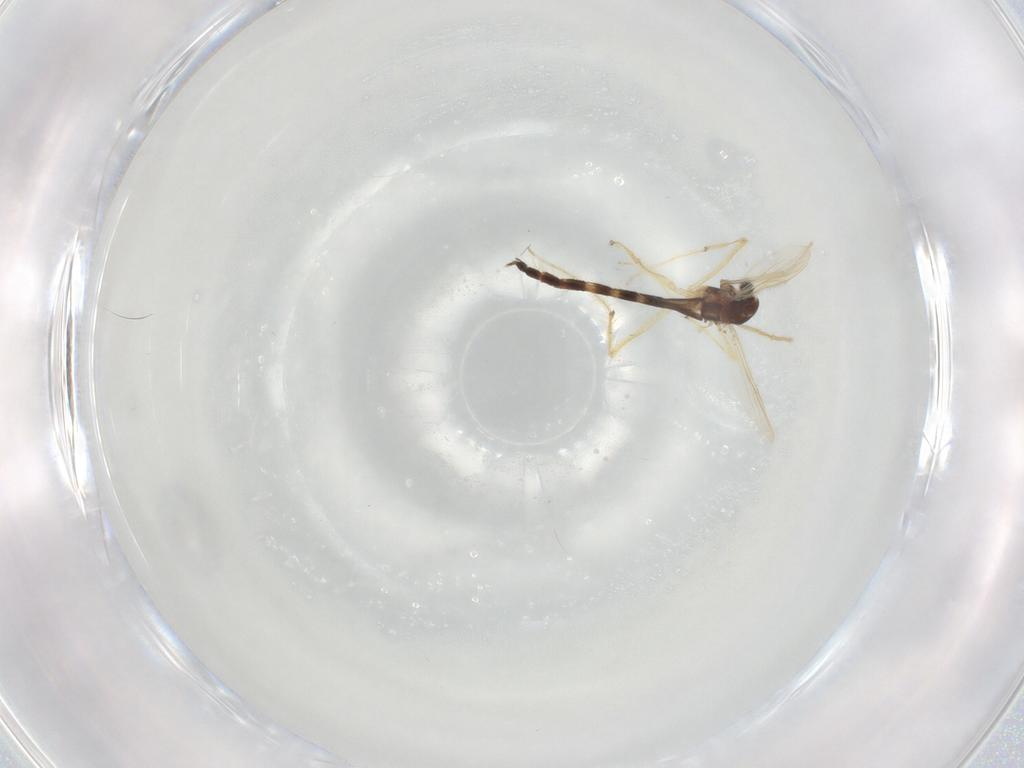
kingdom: Animalia
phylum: Arthropoda
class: Insecta
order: Diptera
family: Chironomidae
